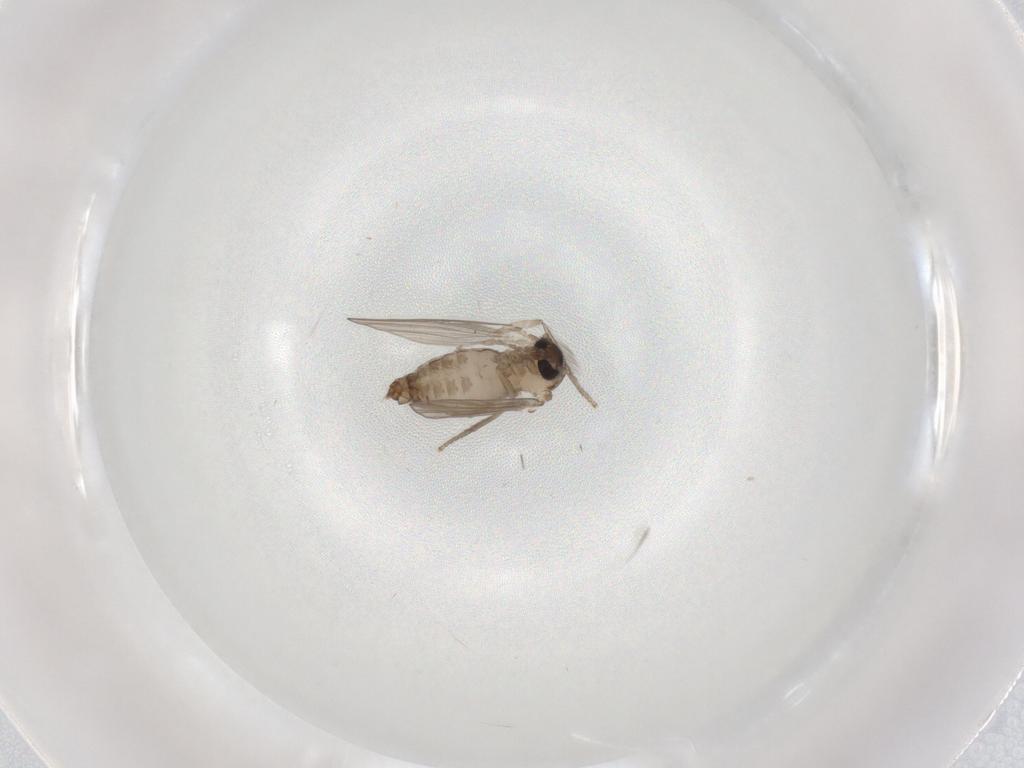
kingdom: Animalia
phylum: Arthropoda
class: Insecta
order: Diptera
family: Psychodidae
